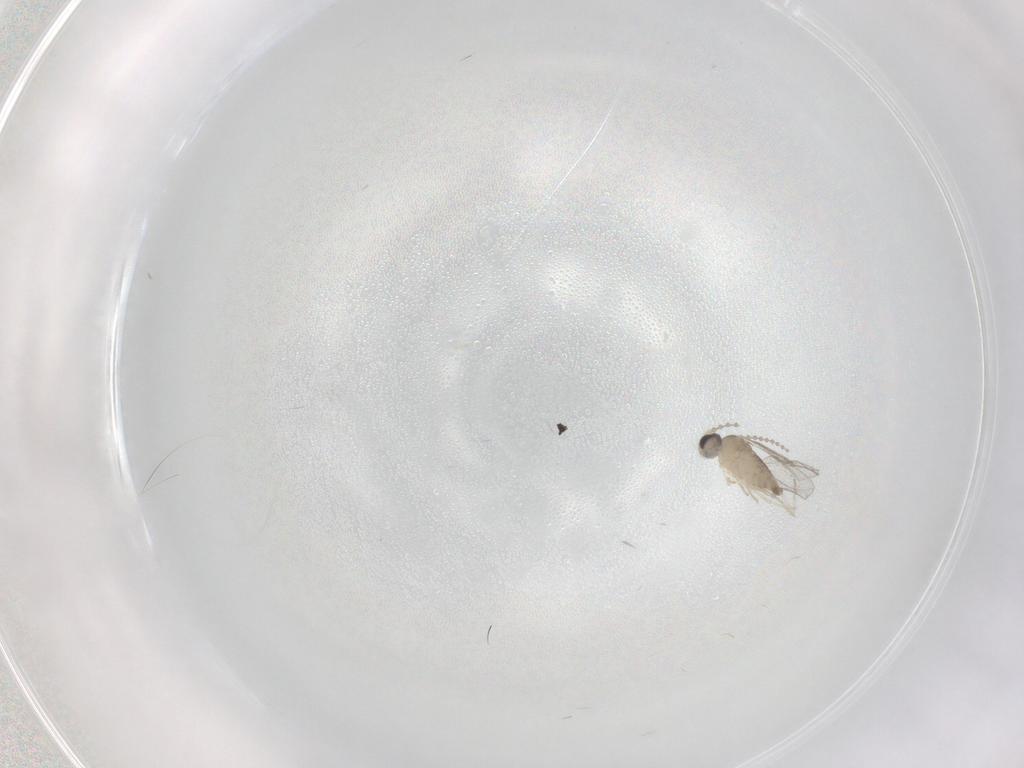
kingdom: Animalia
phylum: Arthropoda
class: Insecta
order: Diptera
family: Cecidomyiidae
